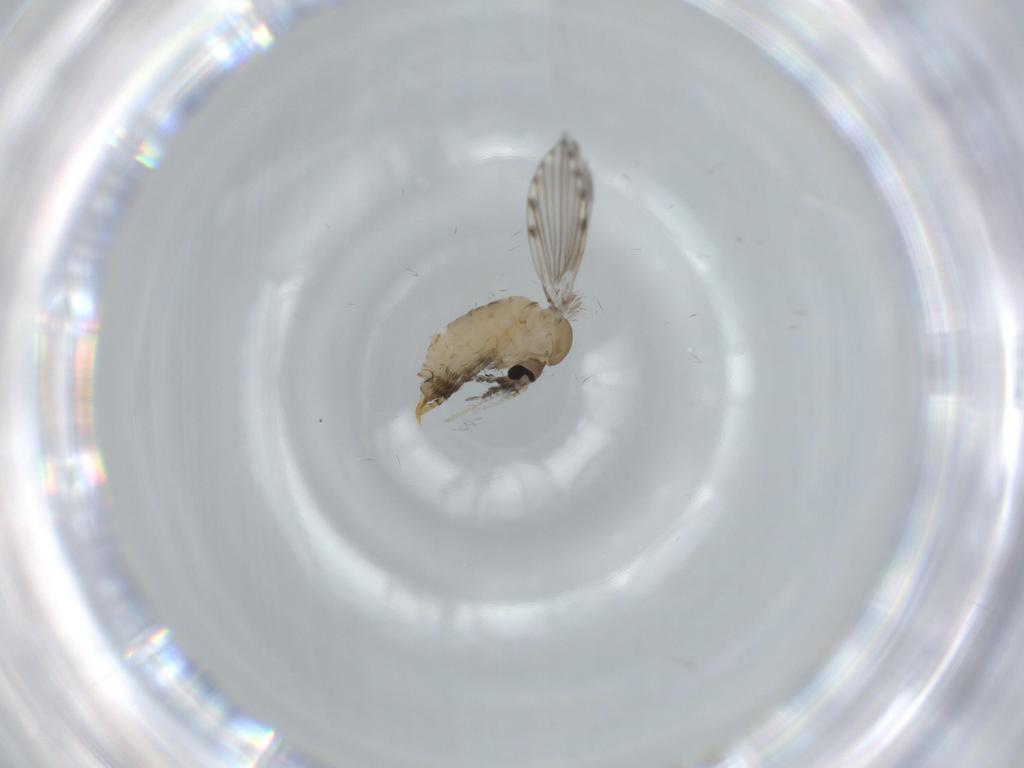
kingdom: Animalia
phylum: Arthropoda
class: Insecta
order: Diptera
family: Psychodidae
